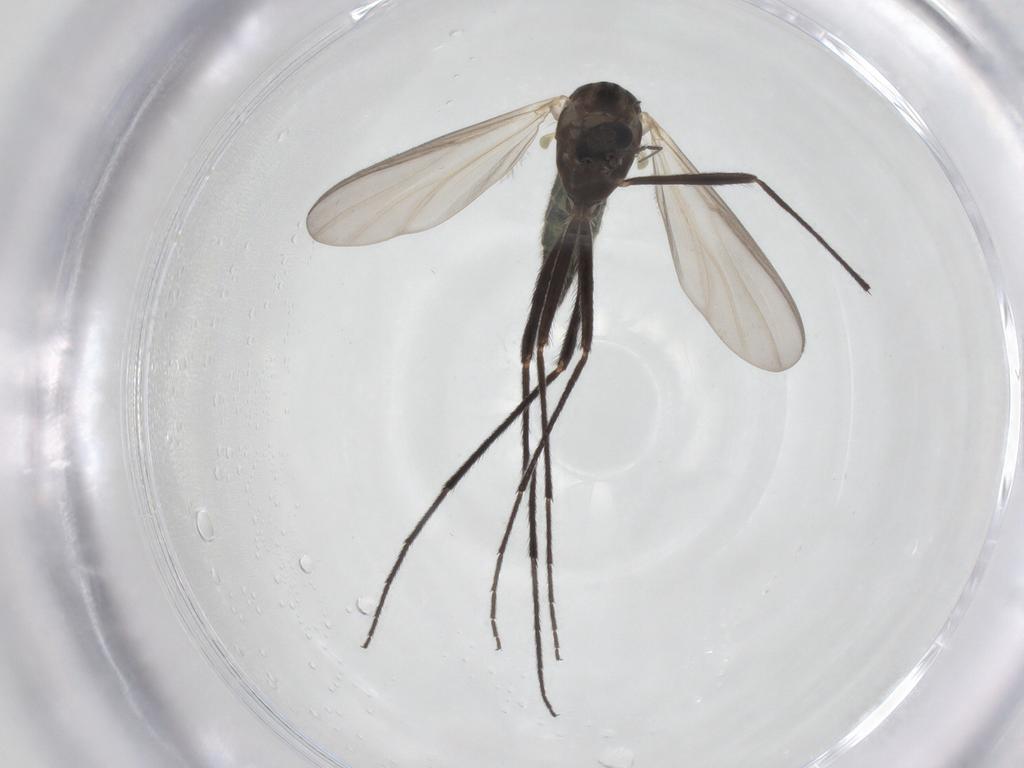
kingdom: Animalia
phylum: Arthropoda
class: Insecta
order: Diptera
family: Chironomidae
